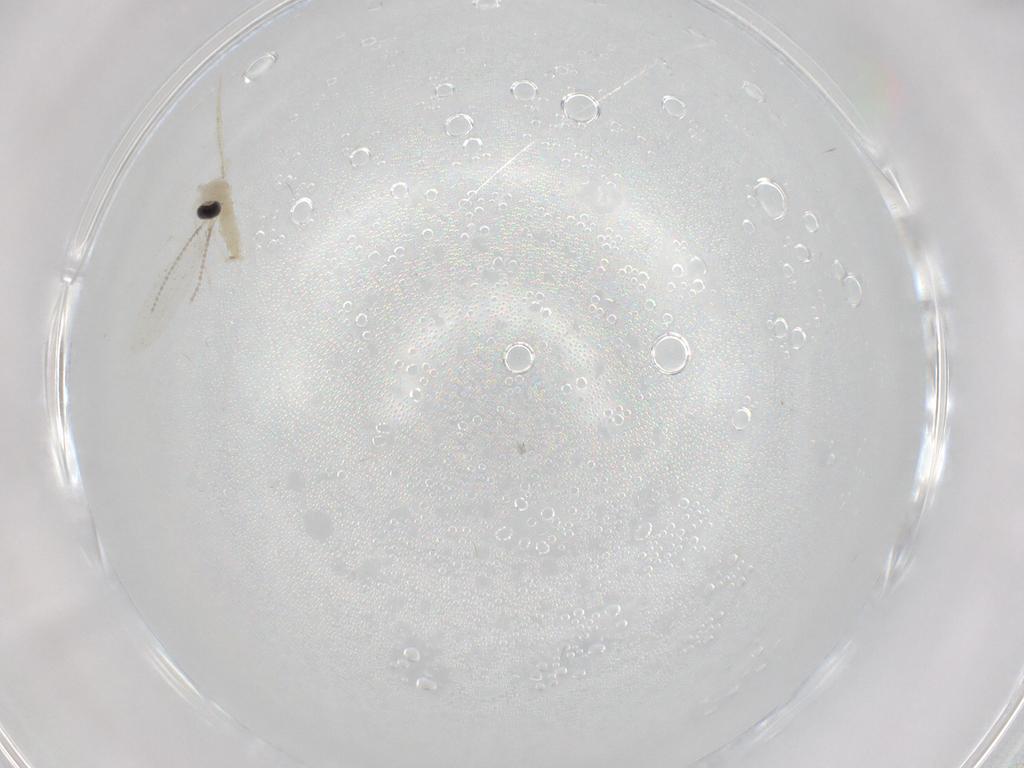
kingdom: Animalia
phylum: Arthropoda
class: Insecta
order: Diptera
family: Cecidomyiidae
